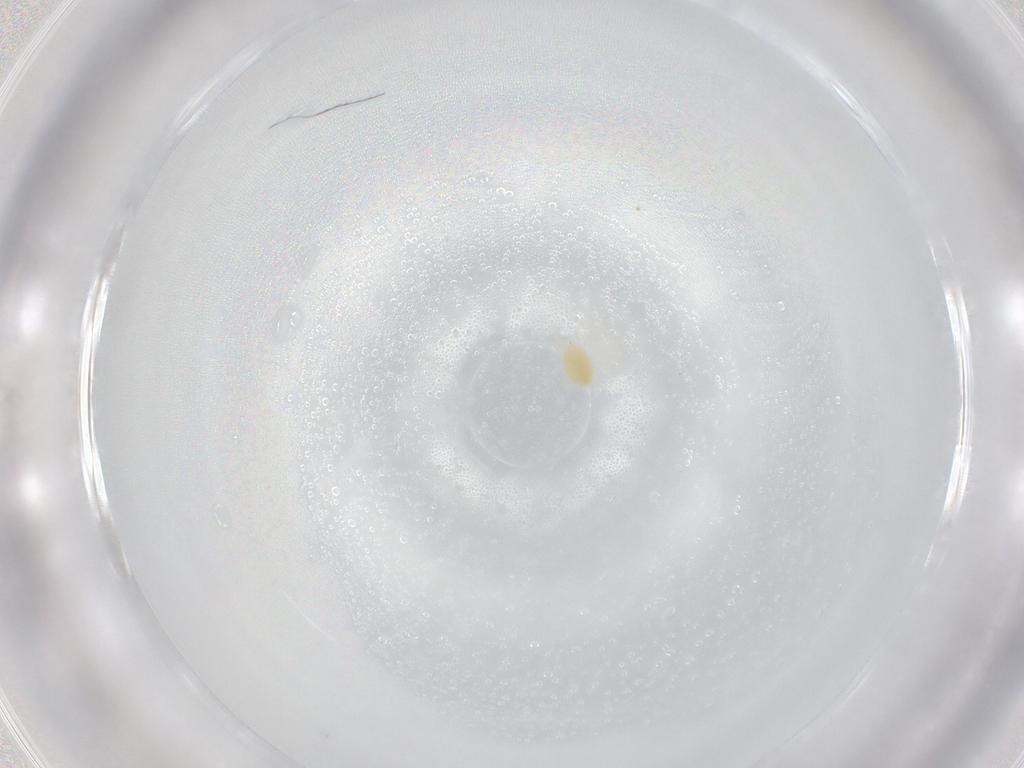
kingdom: Animalia
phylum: Arthropoda
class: Arachnida
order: Trombidiformes
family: Tetranychidae
